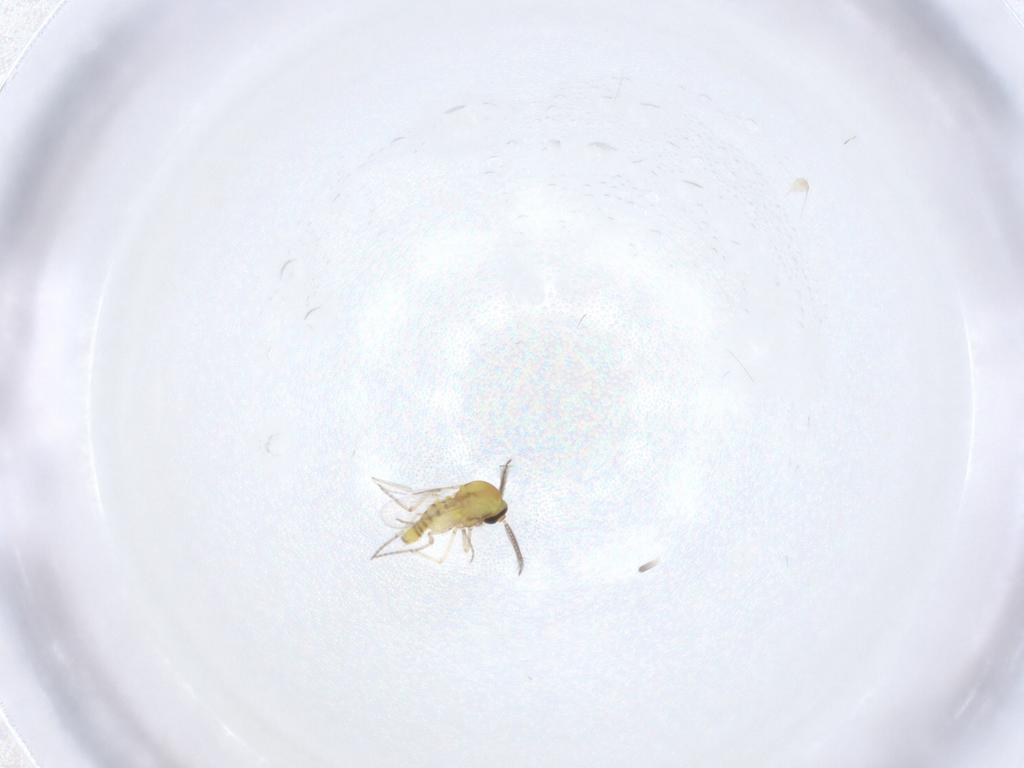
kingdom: Animalia
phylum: Arthropoda
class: Insecta
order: Diptera
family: Ceratopogonidae
